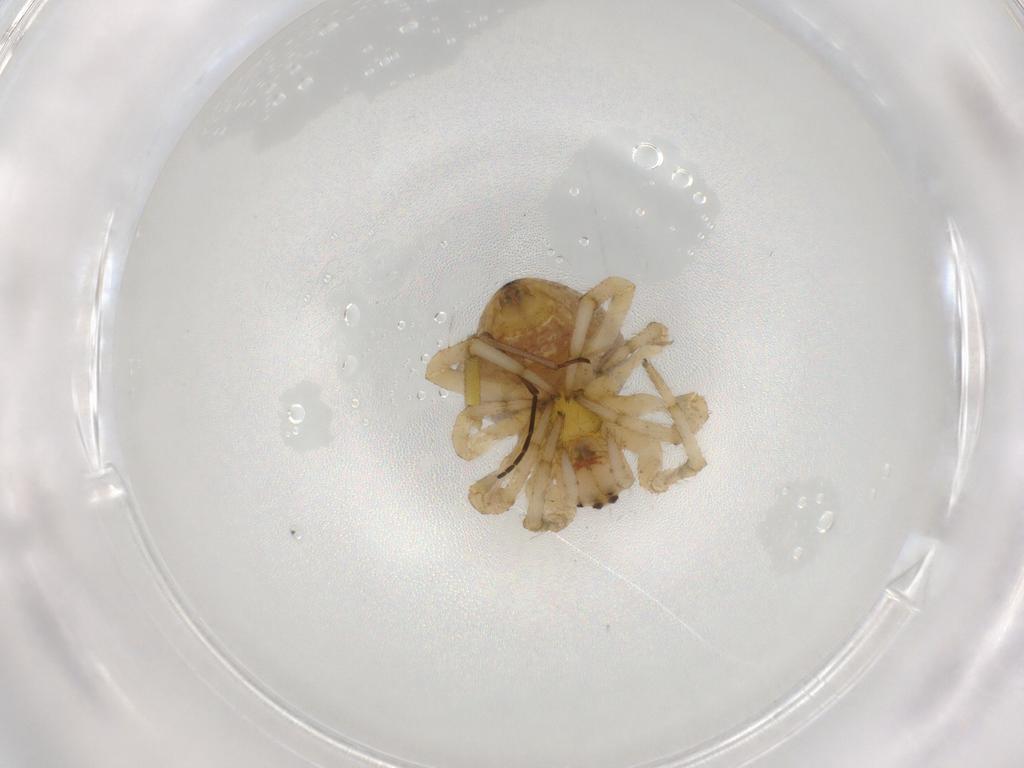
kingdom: Animalia
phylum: Arthropoda
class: Arachnida
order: Araneae
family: Araneidae
